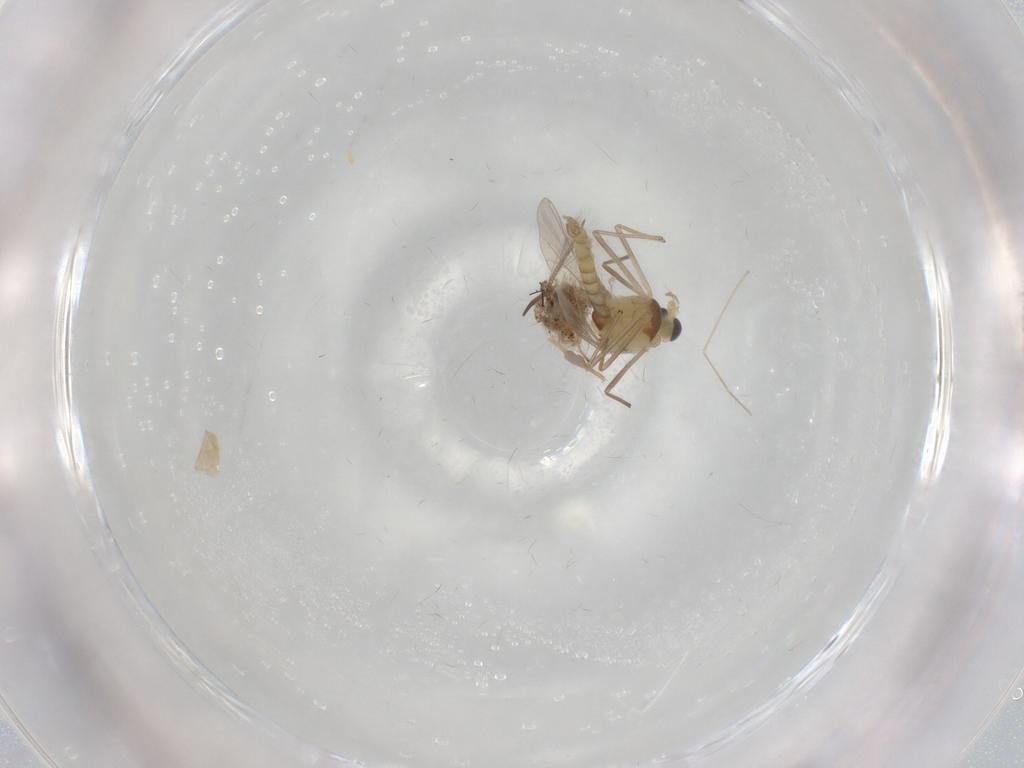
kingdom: Animalia
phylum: Arthropoda
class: Insecta
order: Diptera
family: Chironomidae
